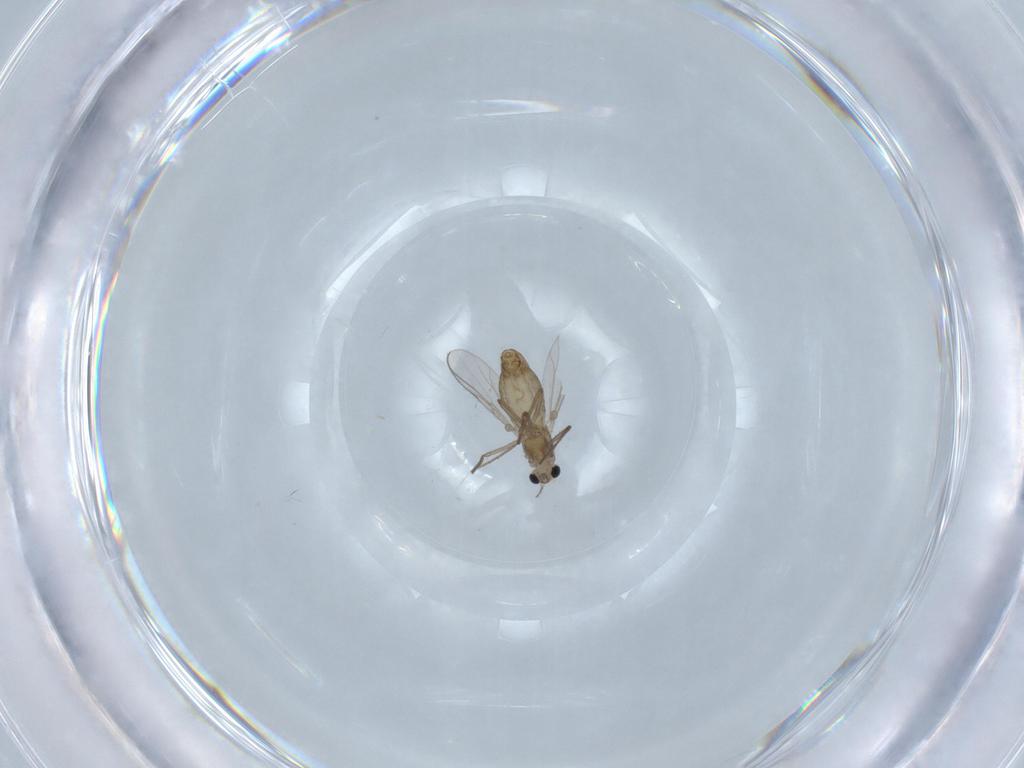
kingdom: Animalia
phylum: Arthropoda
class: Insecta
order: Diptera
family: Chironomidae
